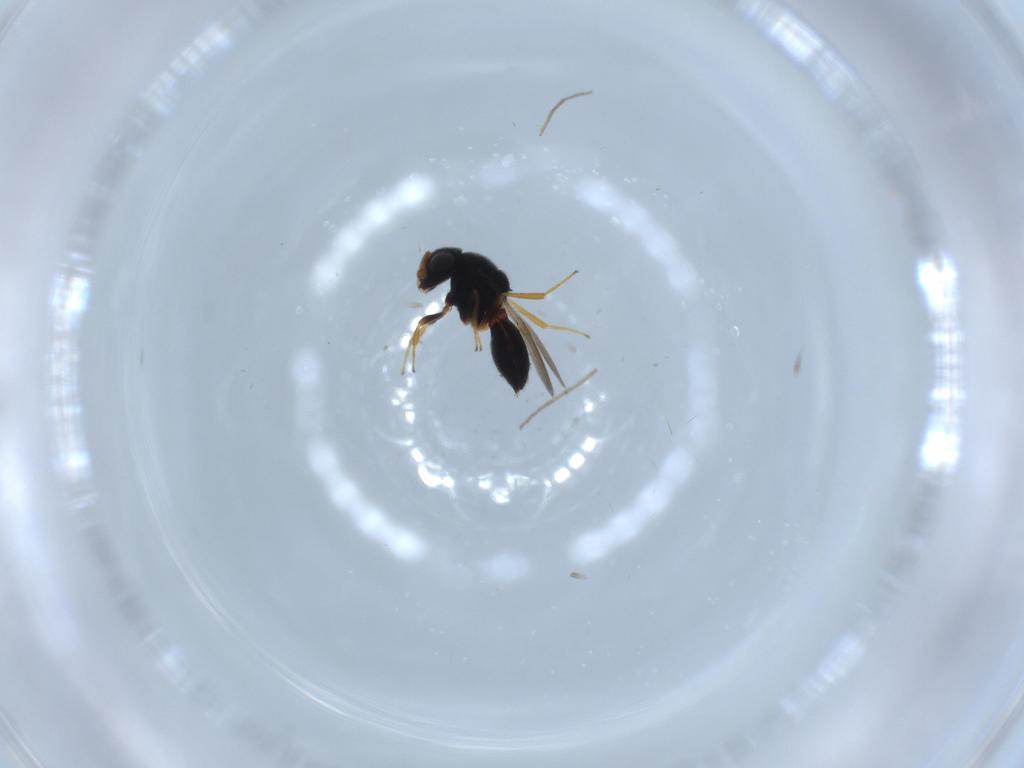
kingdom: Animalia
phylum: Arthropoda
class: Insecta
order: Hymenoptera
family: Scelionidae
